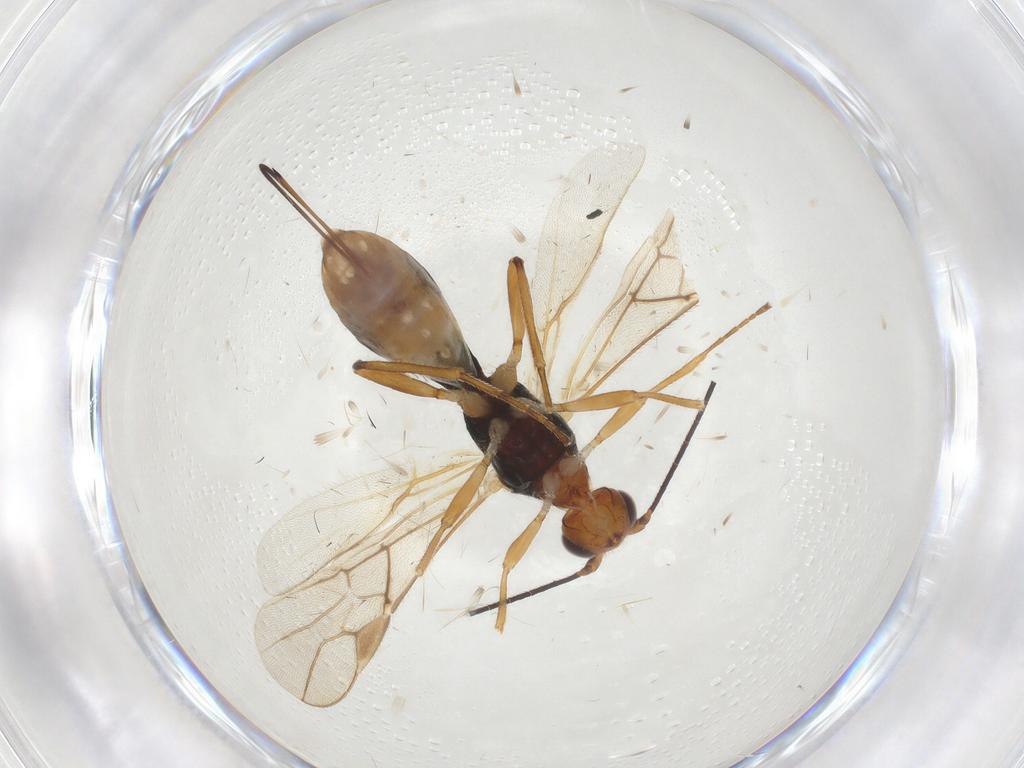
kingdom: Animalia
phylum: Arthropoda
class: Insecta
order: Hymenoptera
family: Braconidae
